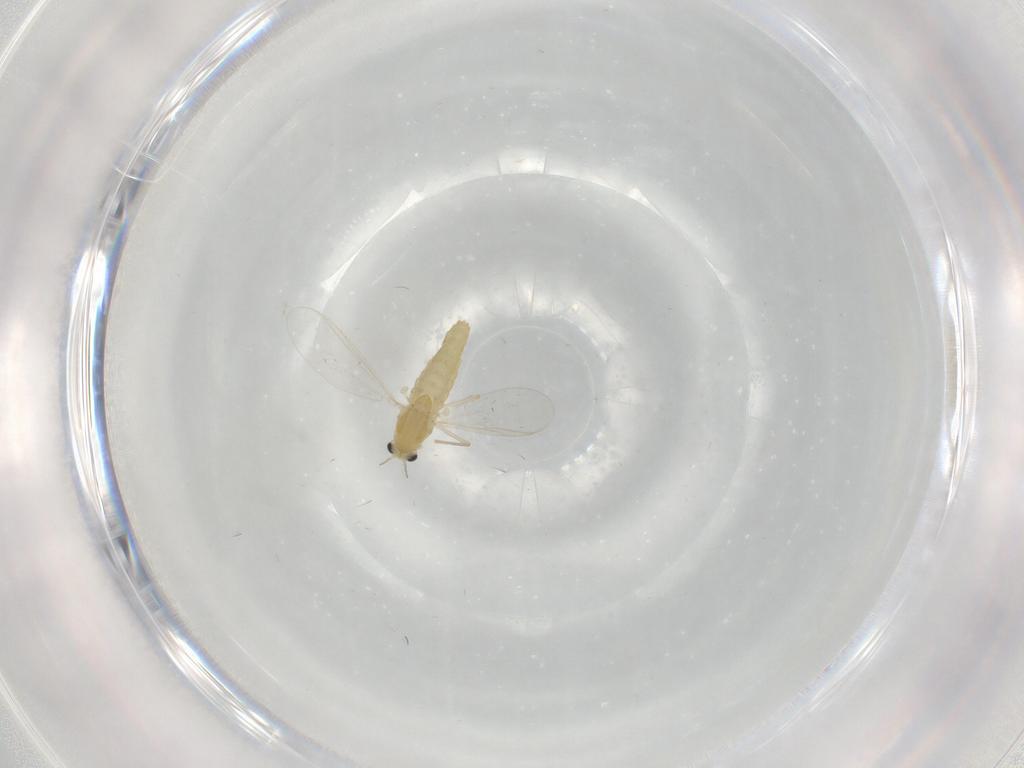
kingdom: Animalia
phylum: Arthropoda
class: Insecta
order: Diptera
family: Chironomidae
